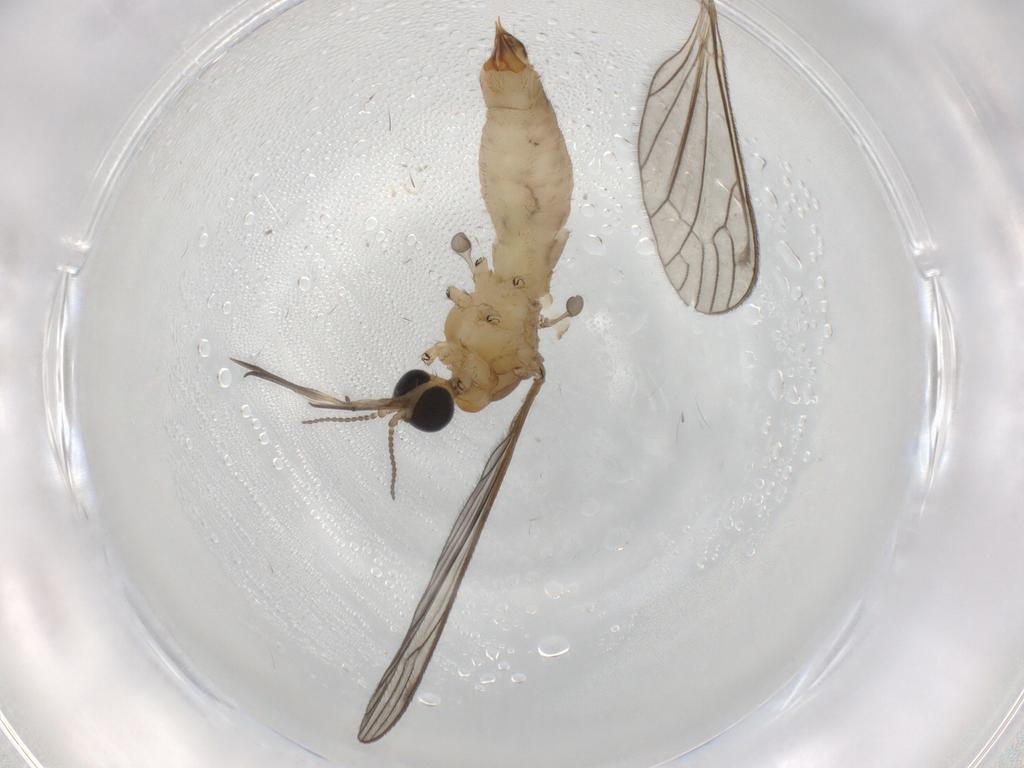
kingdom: Animalia
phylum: Arthropoda
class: Insecta
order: Diptera
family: Limoniidae
